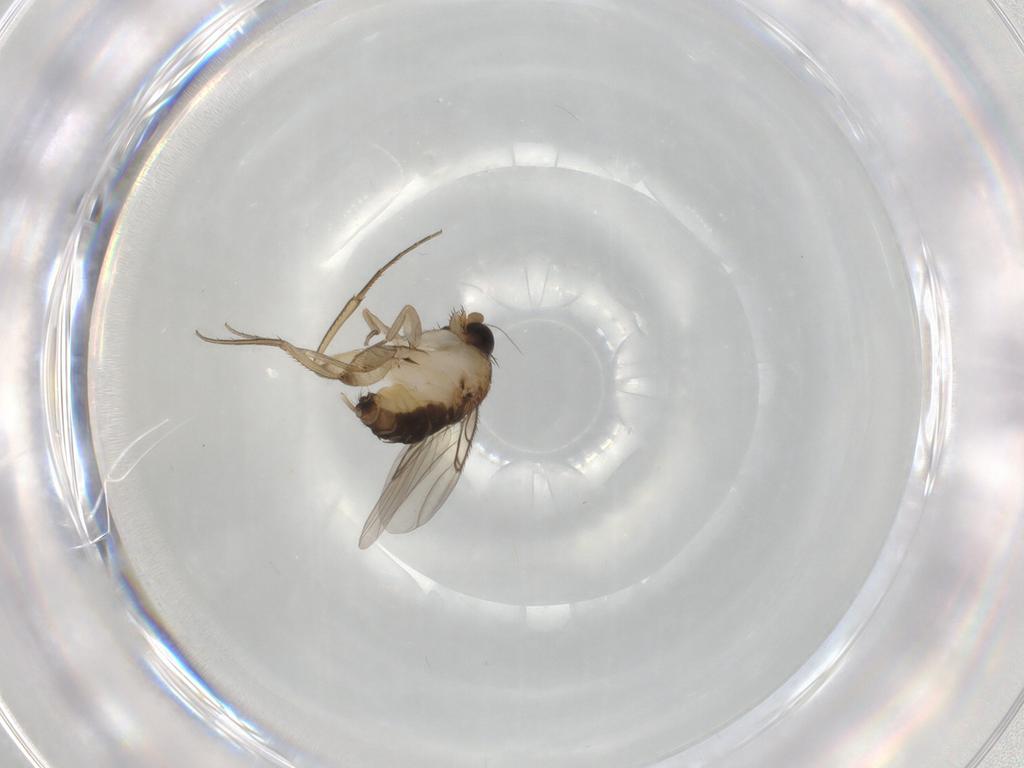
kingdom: Animalia
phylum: Arthropoda
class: Insecta
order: Diptera
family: Phoridae
